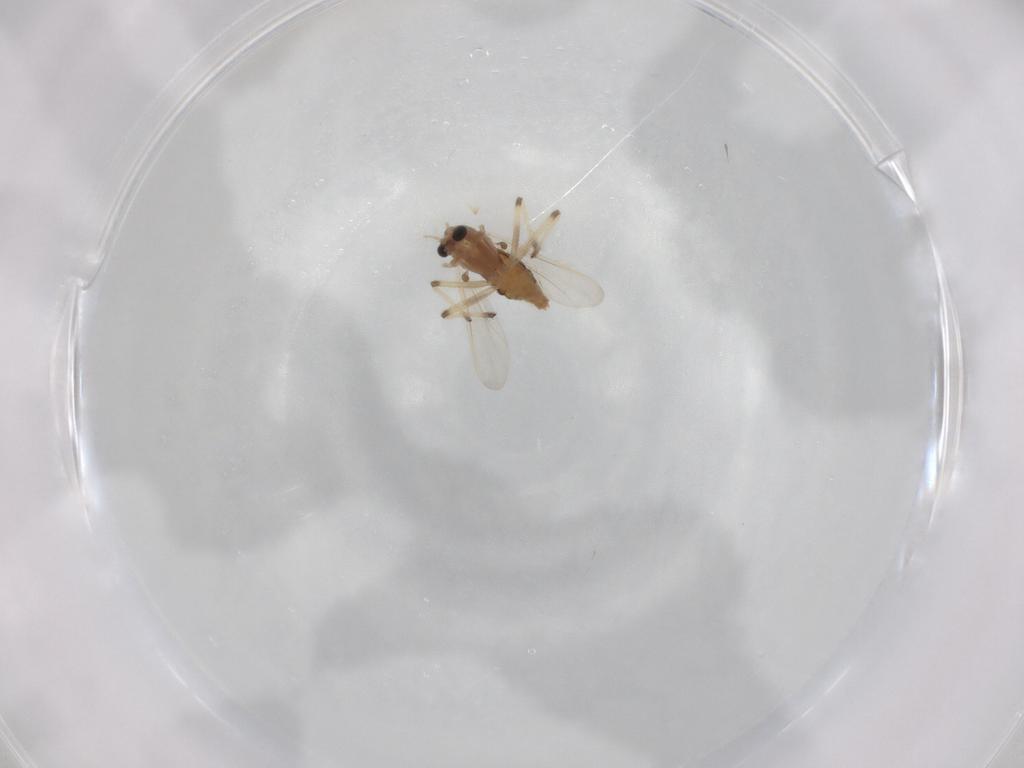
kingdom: Animalia
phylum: Arthropoda
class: Insecta
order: Diptera
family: Chironomidae
